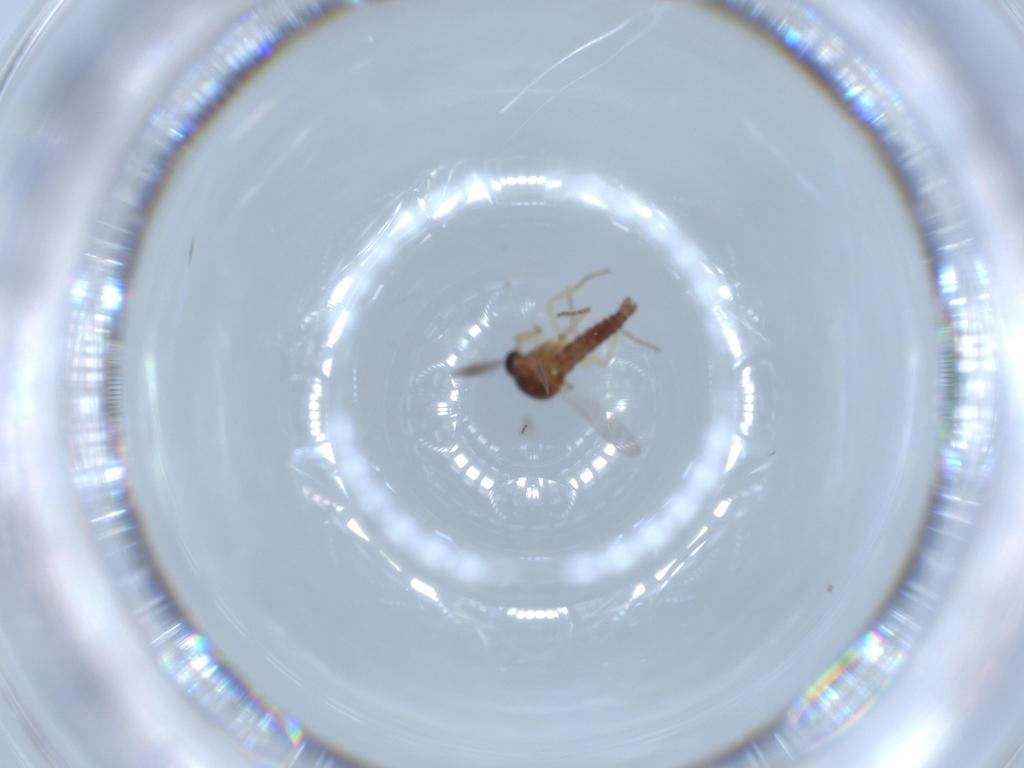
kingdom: Animalia
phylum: Arthropoda
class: Insecta
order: Diptera
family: Ceratopogonidae
